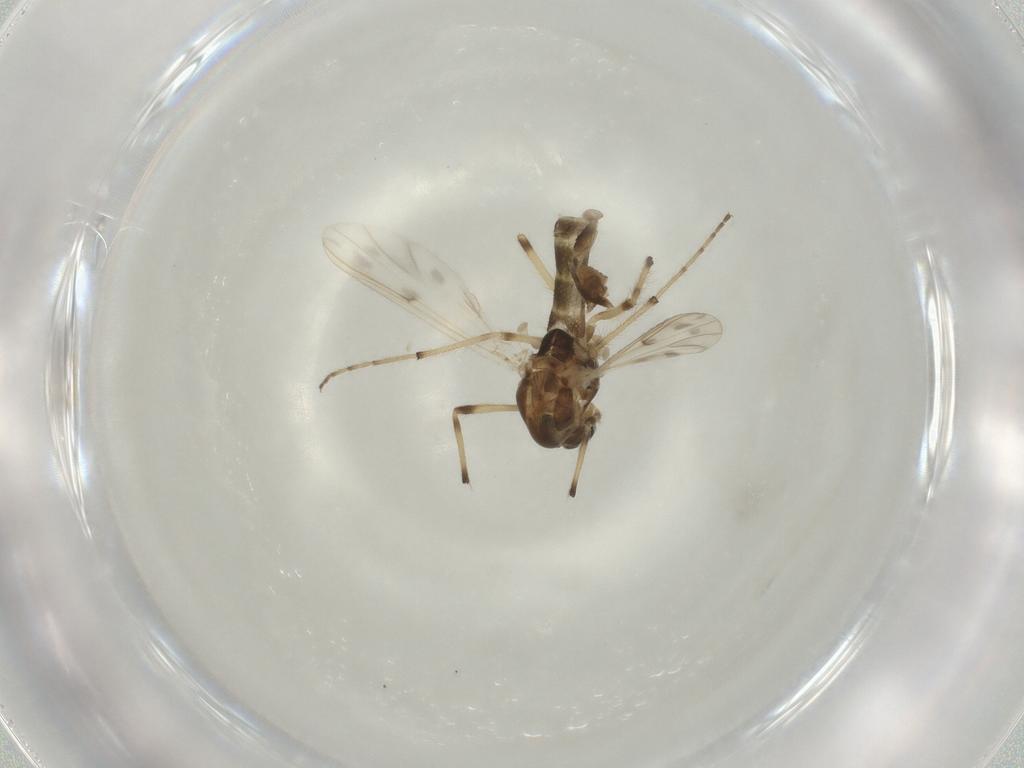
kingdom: Animalia
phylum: Arthropoda
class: Insecta
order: Diptera
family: Chironomidae
